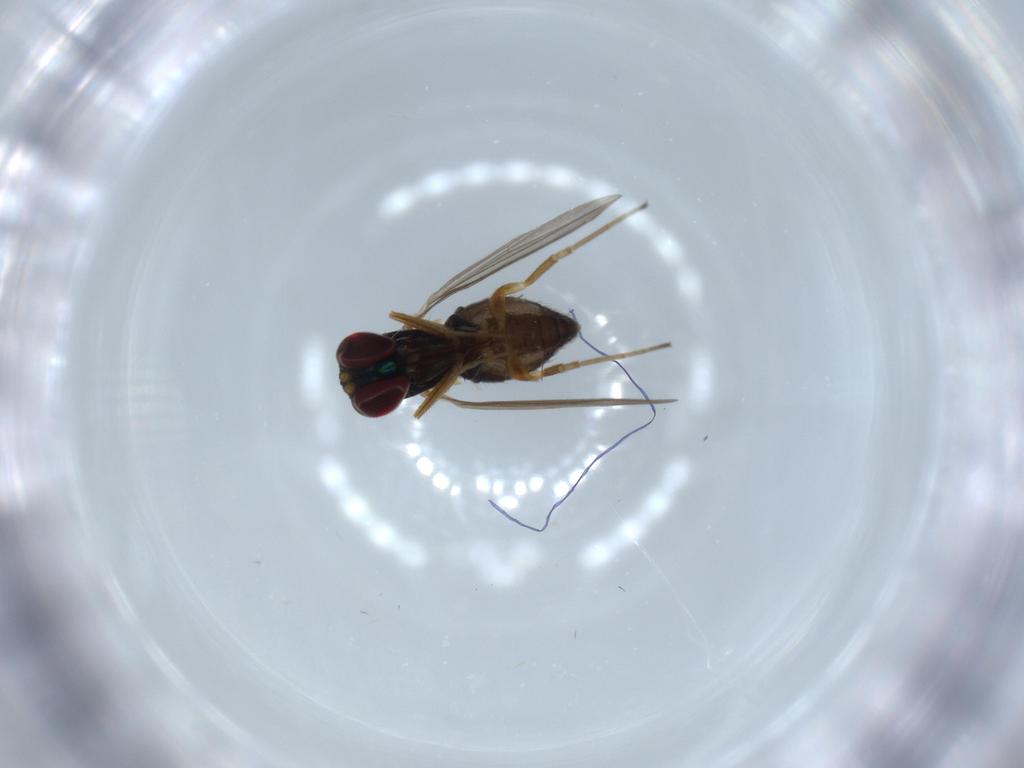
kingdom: Animalia
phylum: Arthropoda
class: Insecta
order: Diptera
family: Dolichopodidae
